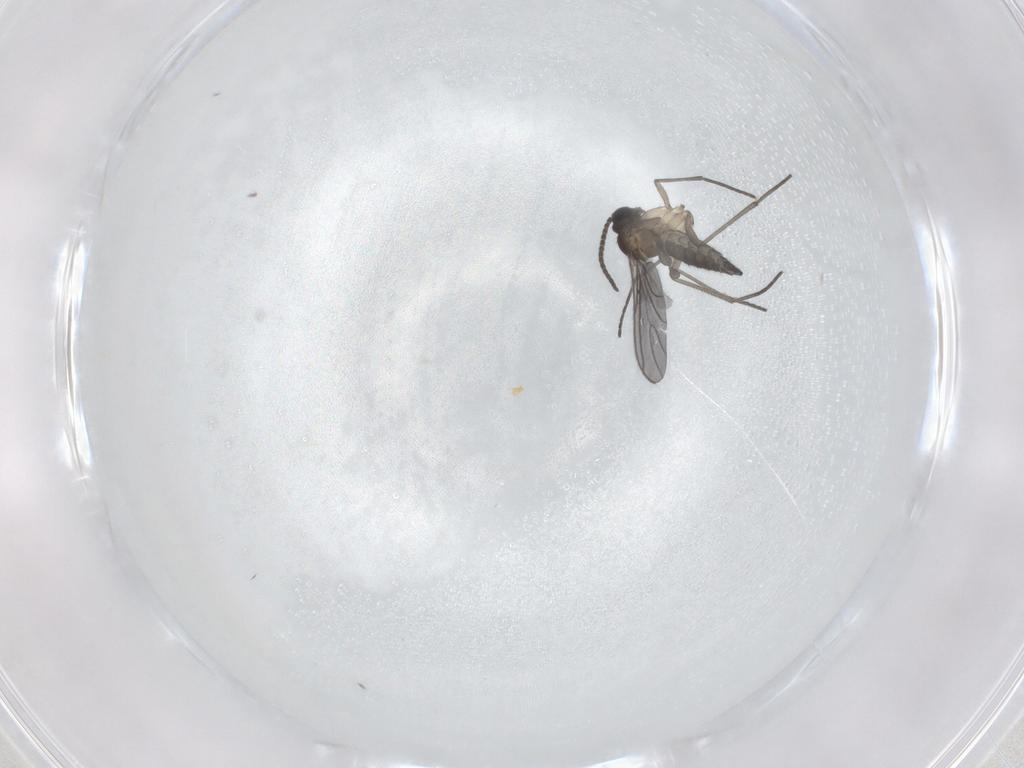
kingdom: Animalia
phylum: Arthropoda
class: Insecta
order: Diptera
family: Sciaridae
